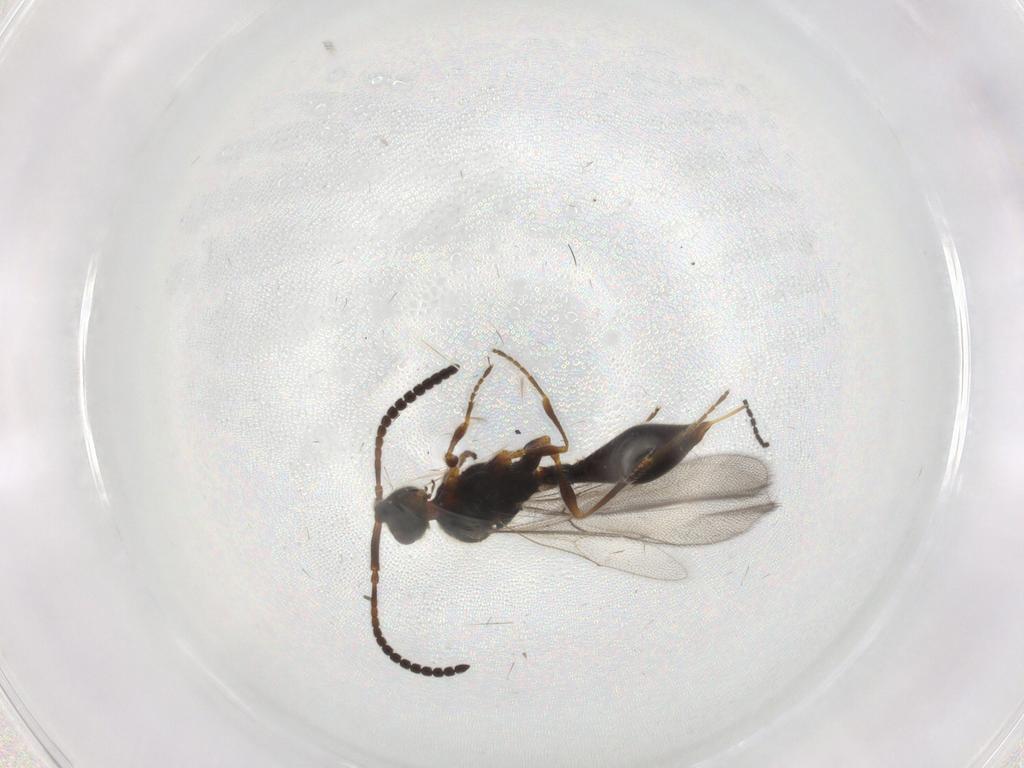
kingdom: Animalia
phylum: Arthropoda
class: Insecta
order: Hymenoptera
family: Diapriidae
